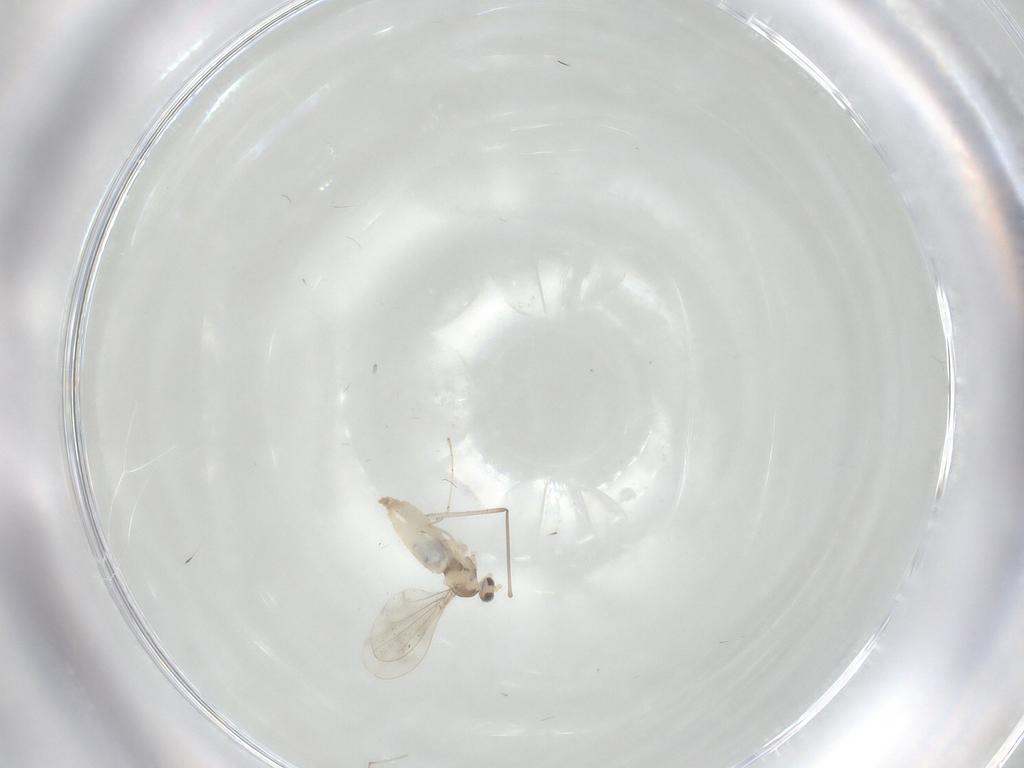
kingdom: Animalia
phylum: Arthropoda
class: Insecta
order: Diptera
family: Cecidomyiidae
